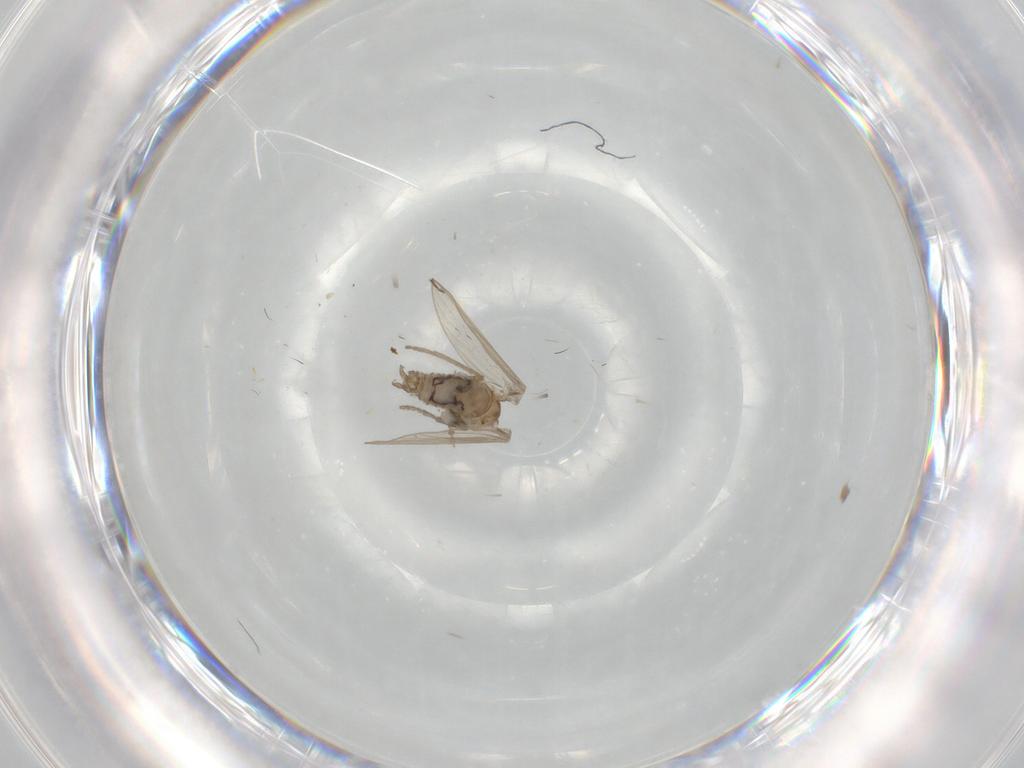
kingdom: Animalia
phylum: Arthropoda
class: Insecta
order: Diptera
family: Psychodidae
